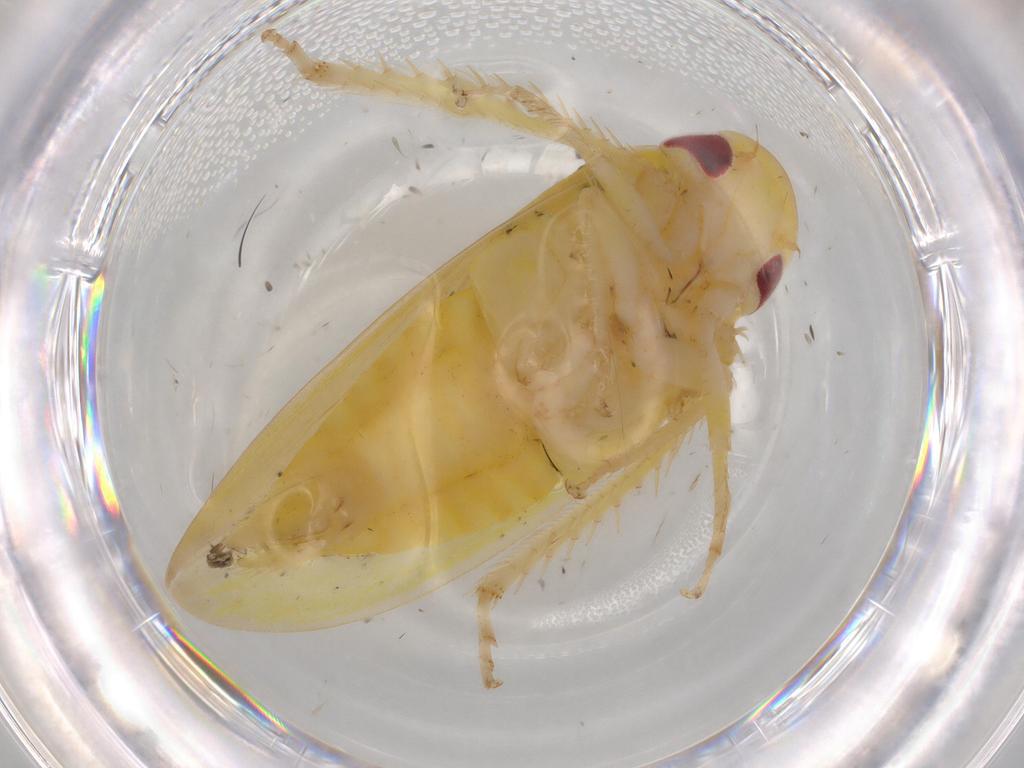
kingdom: Animalia
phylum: Arthropoda
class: Insecta
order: Hemiptera
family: Cicadellidae
